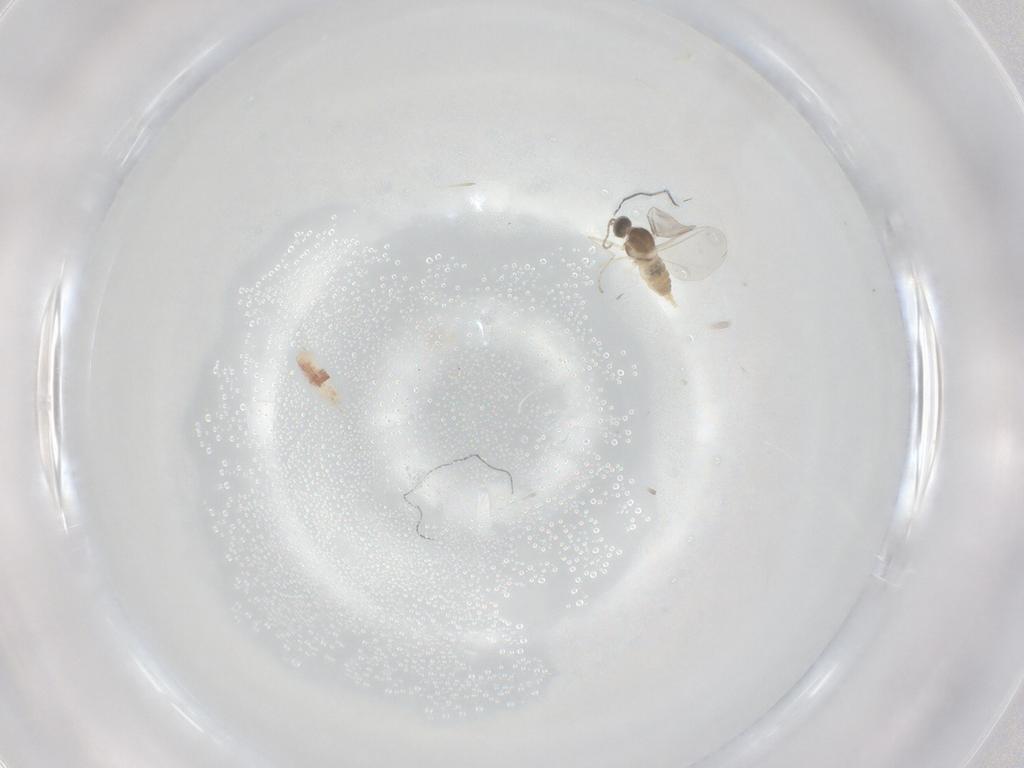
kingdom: Animalia
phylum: Arthropoda
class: Insecta
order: Diptera
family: Cecidomyiidae
